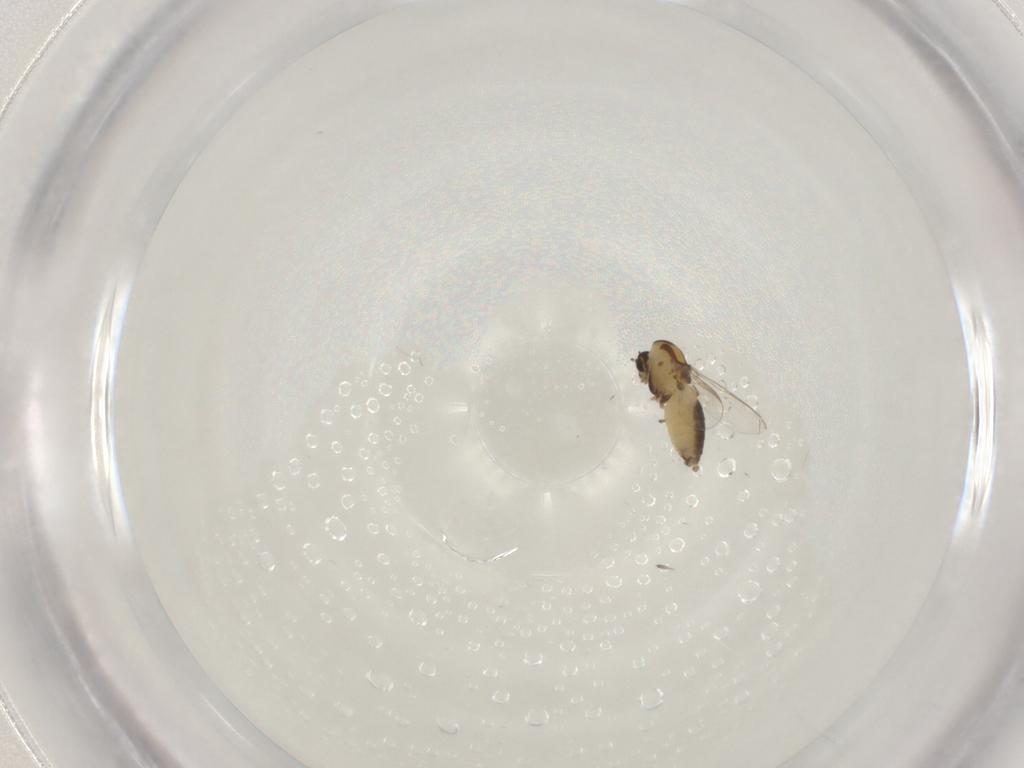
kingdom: Animalia
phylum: Arthropoda
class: Insecta
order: Diptera
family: Chironomidae
